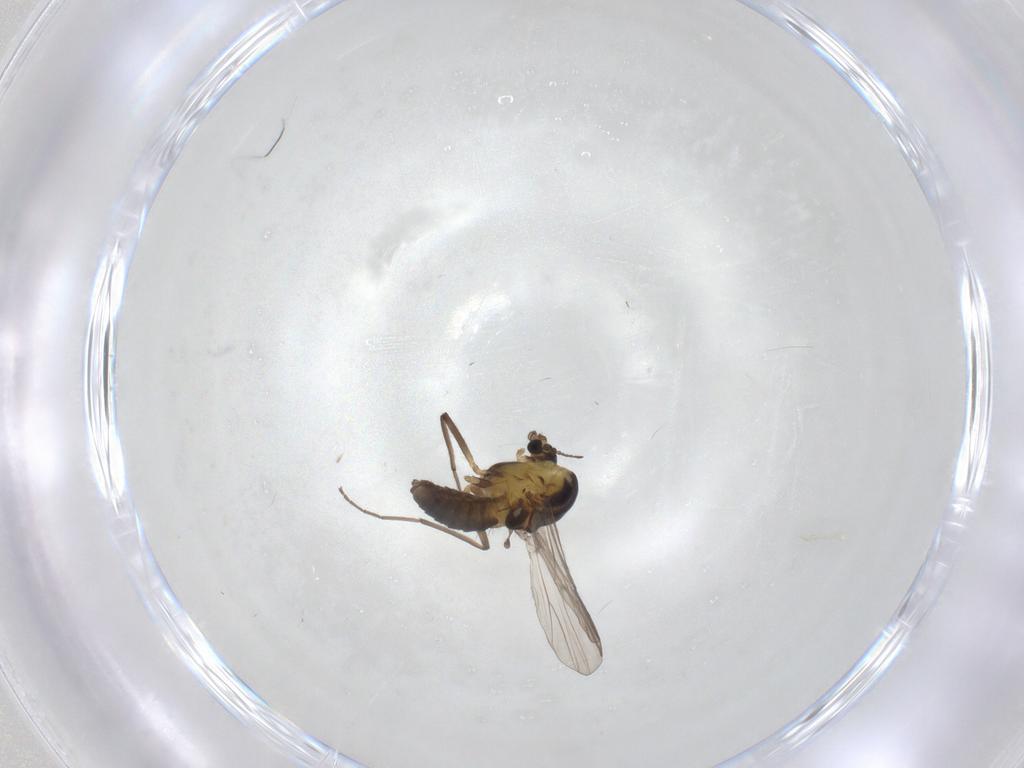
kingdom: Animalia
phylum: Arthropoda
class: Insecta
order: Diptera
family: Chironomidae
